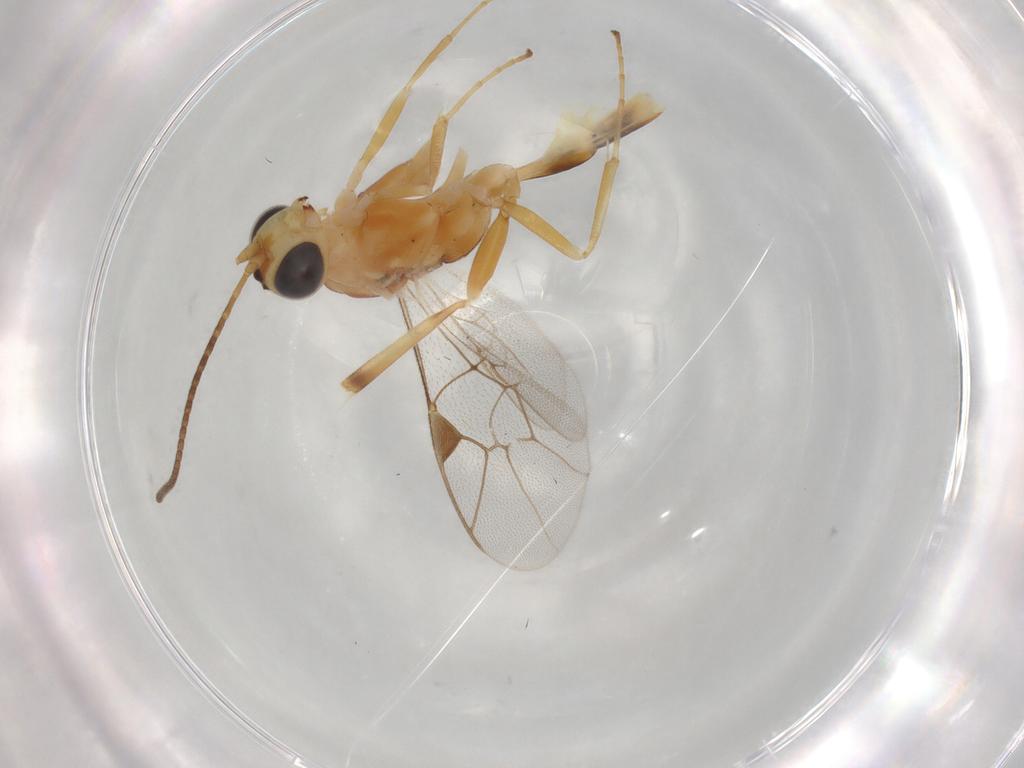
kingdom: Animalia
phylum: Arthropoda
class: Insecta
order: Hymenoptera
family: Ichneumonidae
